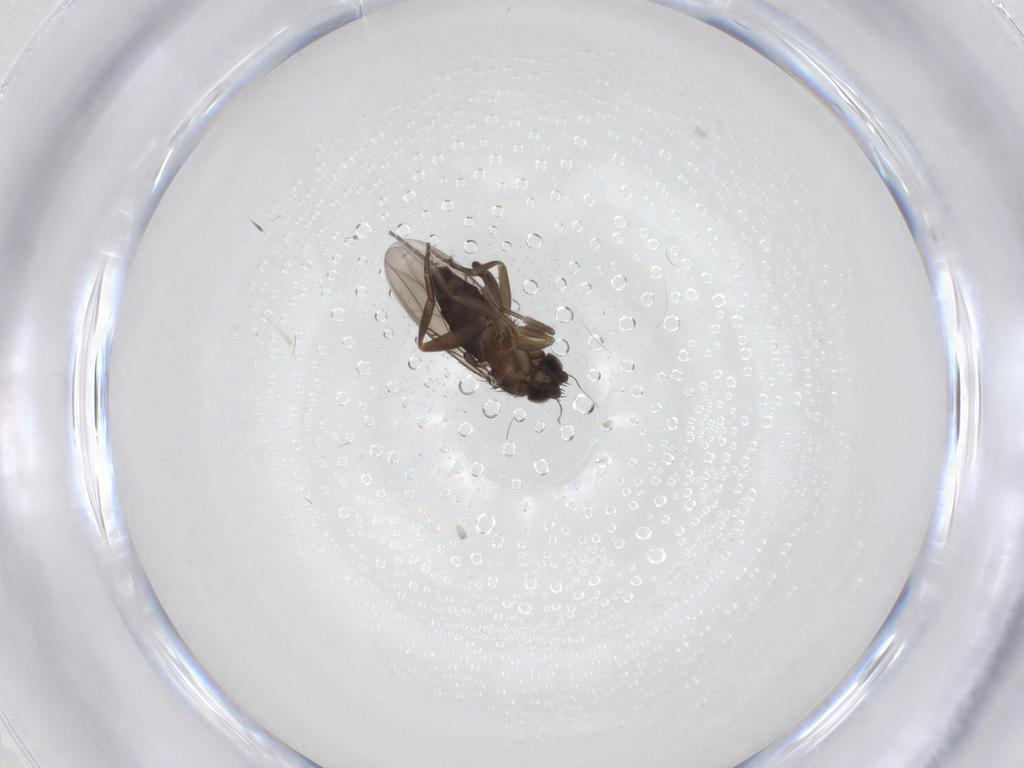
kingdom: Animalia
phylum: Arthropoda
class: Insecta
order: Diptera
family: Phoridae
